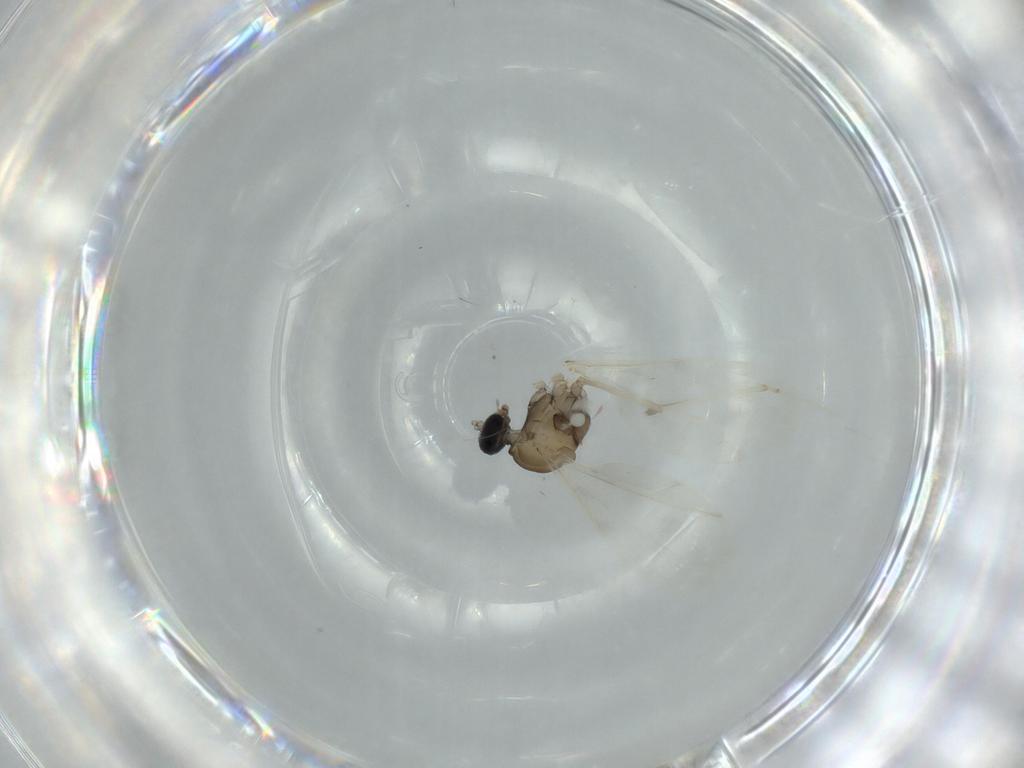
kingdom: Animalia
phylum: Arthropoda
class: Insecta
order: Diptera
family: Cecidomyiidae
